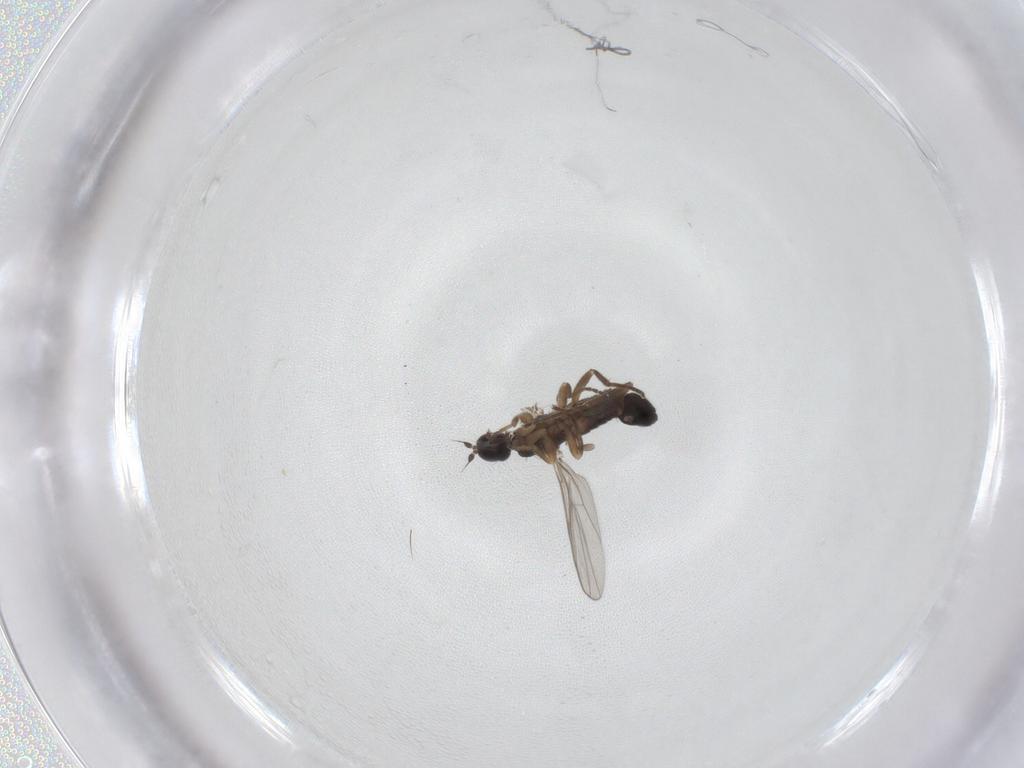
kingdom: Animalia
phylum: Arthropoda
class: Insecta
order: Diptera
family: Hybotidae
